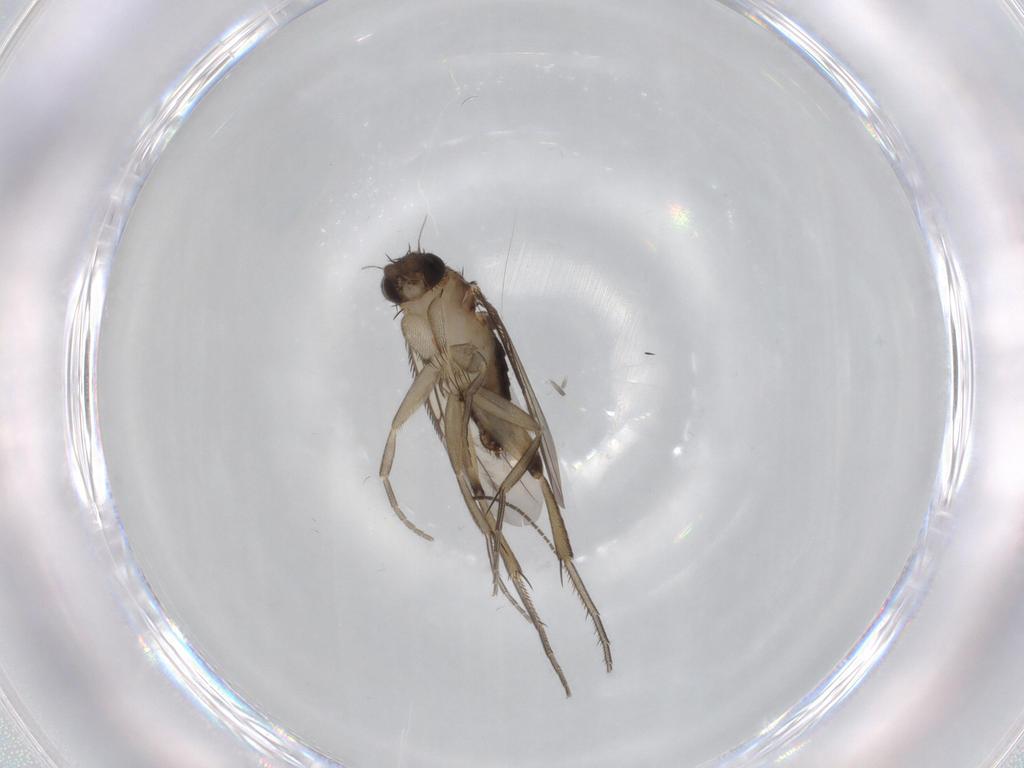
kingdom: Animalia
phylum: Arthropoda
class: Insecta
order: Diptera
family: Phoridae
